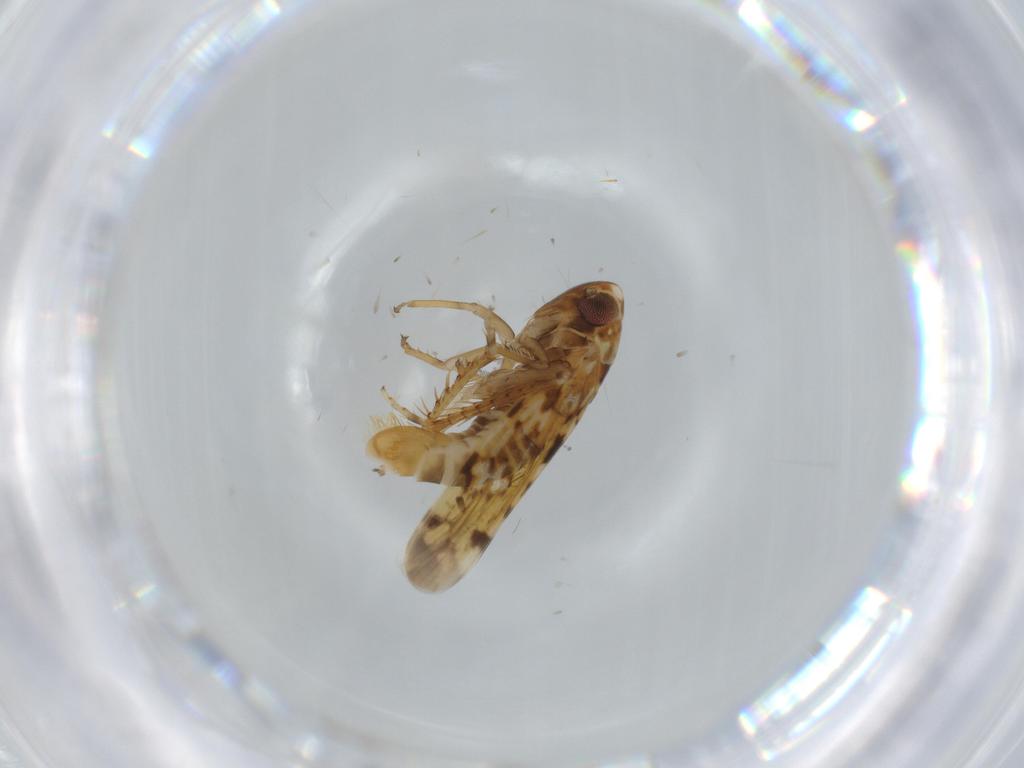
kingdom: Animalia
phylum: Arthropoda
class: Insecta
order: Hemiptera
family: Cicadellidae
